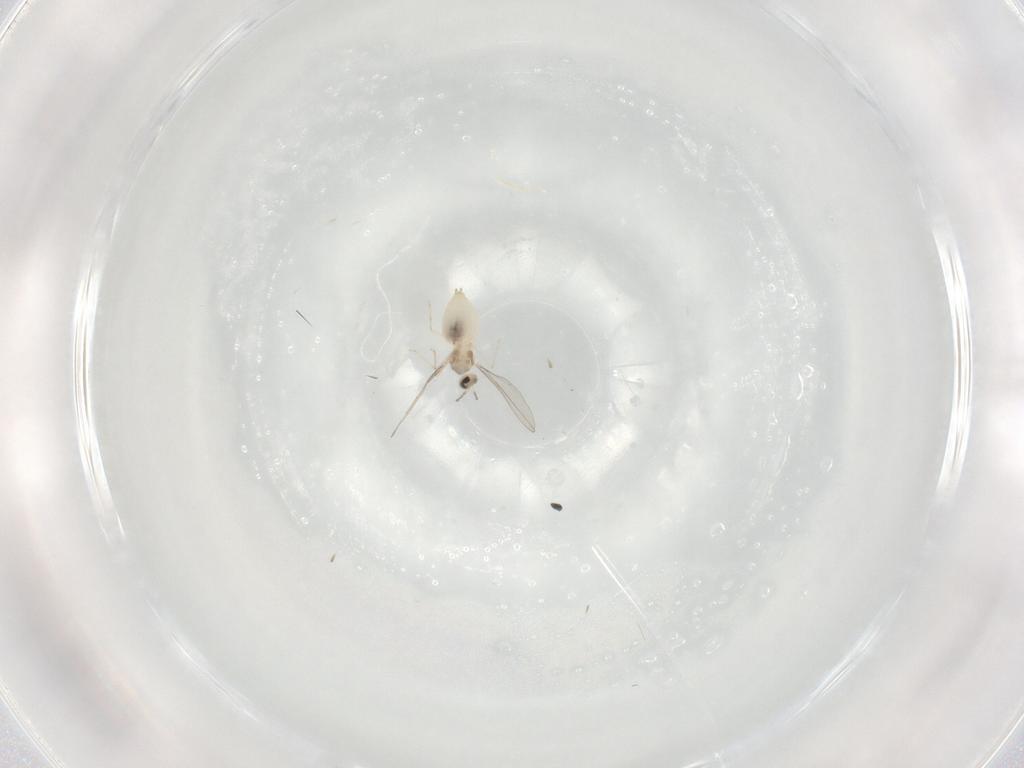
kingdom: Animalia
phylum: Arthropoda
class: Insecta
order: Diptera
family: Cecidomyiidae
